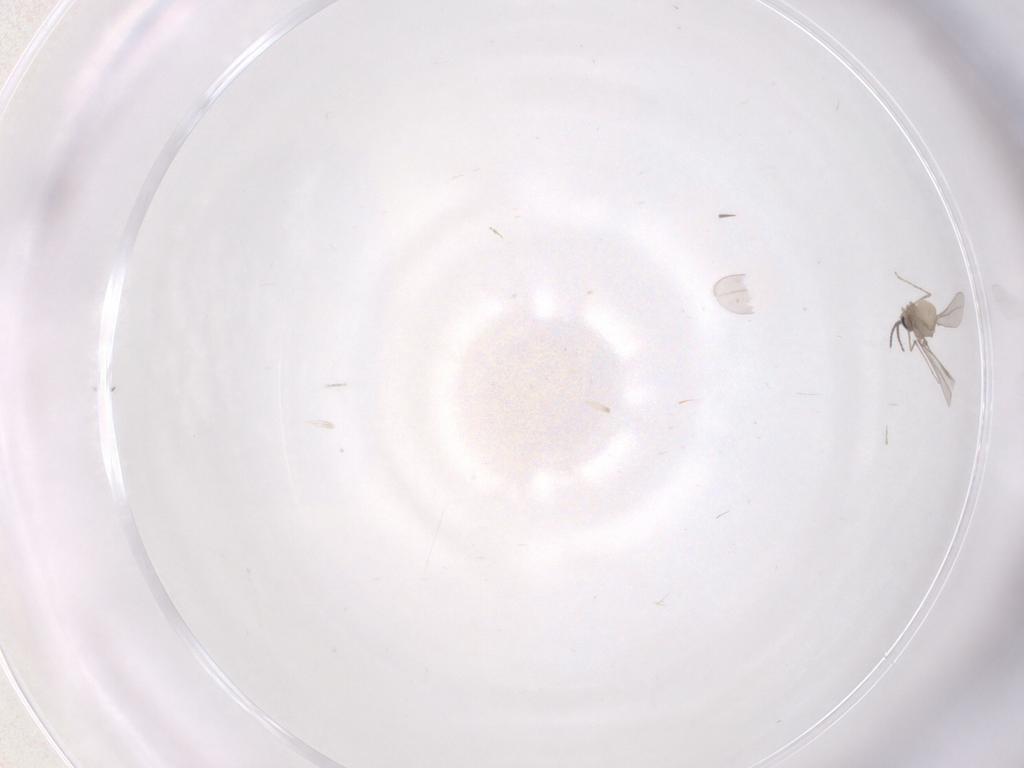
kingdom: Animalia
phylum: Arthropoda
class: Insecta
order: Diptera
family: Cecidomyiidae
